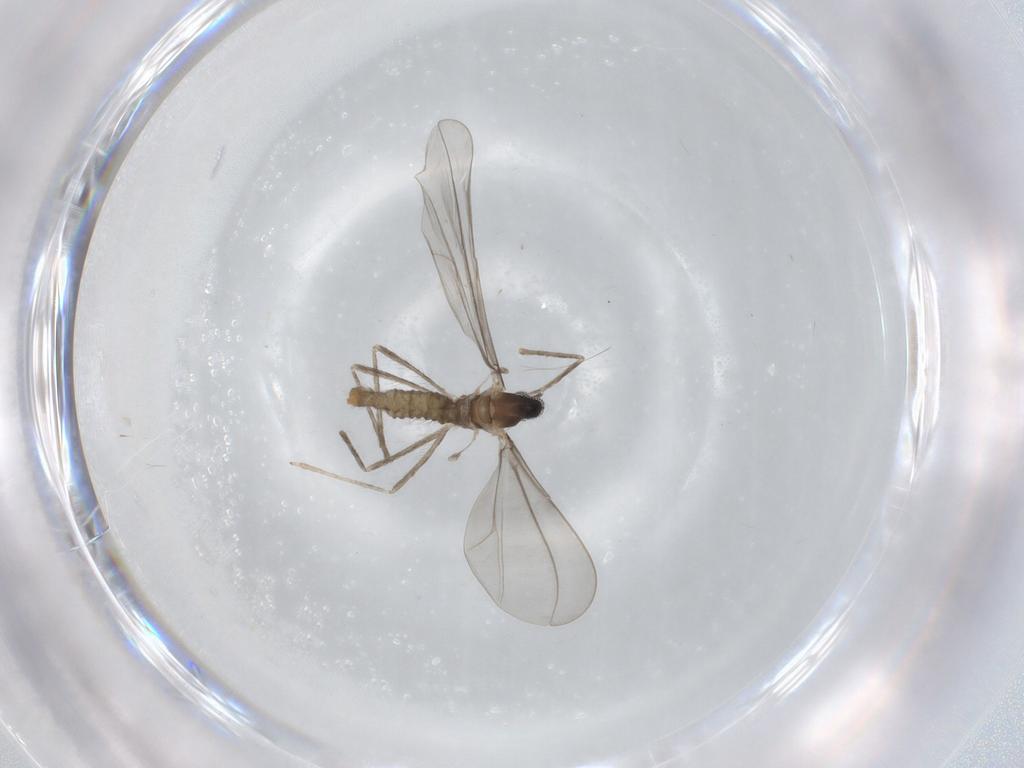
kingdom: Animalia
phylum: Arthropoda
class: Insecta
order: Diptera
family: Cecidomyiidae
